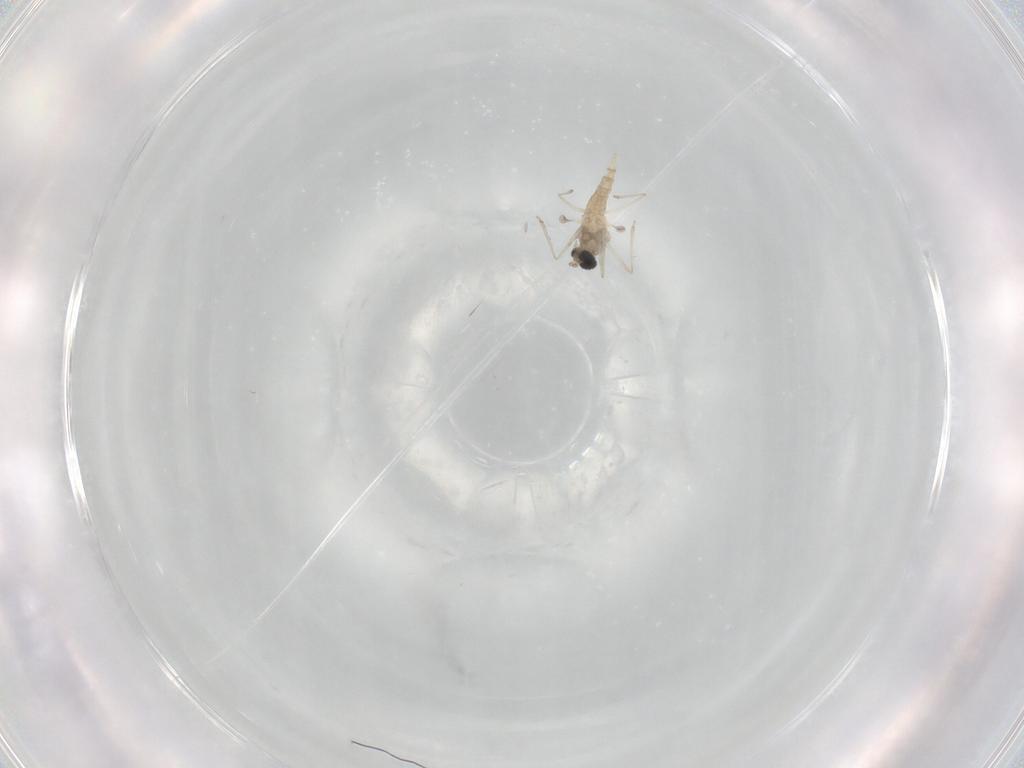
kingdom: Animalia
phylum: Arthropoda
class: Insecta
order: Diptera
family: Cecidomyiidae
